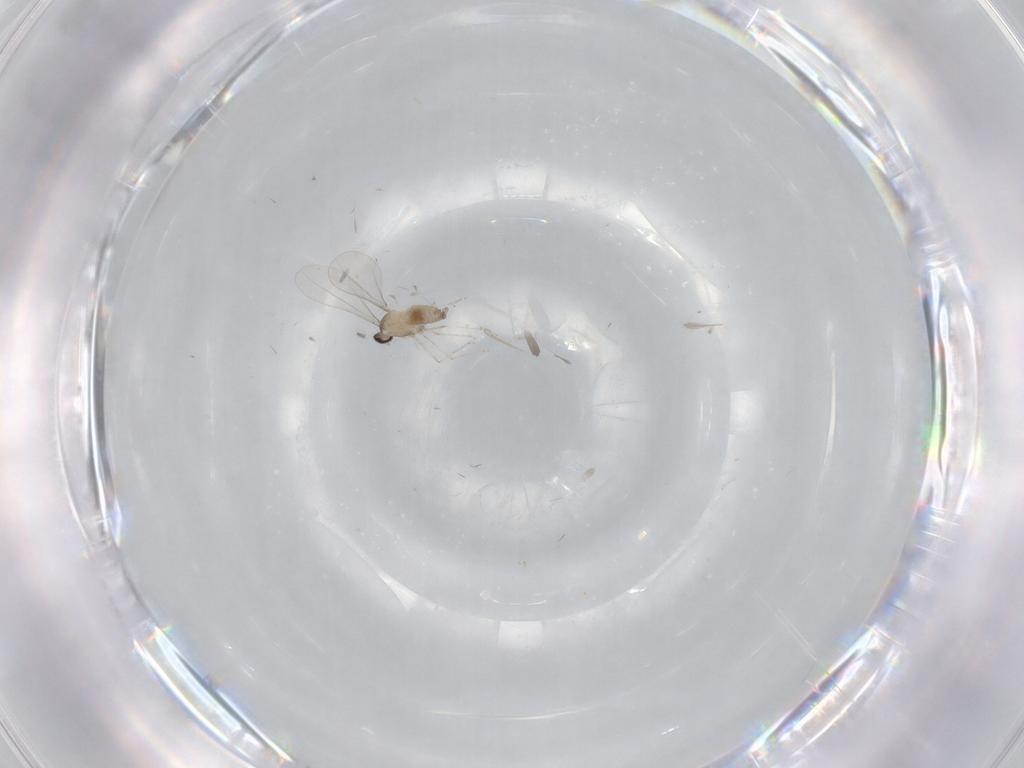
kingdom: Animalia
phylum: Arthropoda
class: Insecta
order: Diptera
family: Cecidomyiidae
